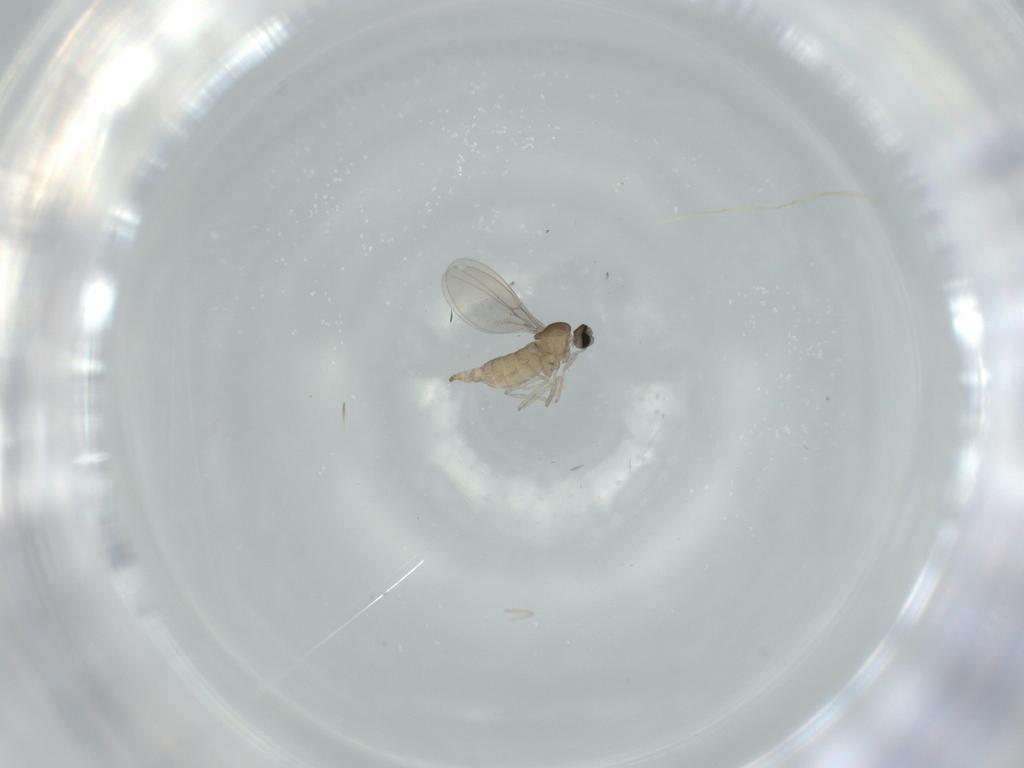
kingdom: Animalia
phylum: Arthropoda
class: Insecta
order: Diptera
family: Cecidomyiidae
